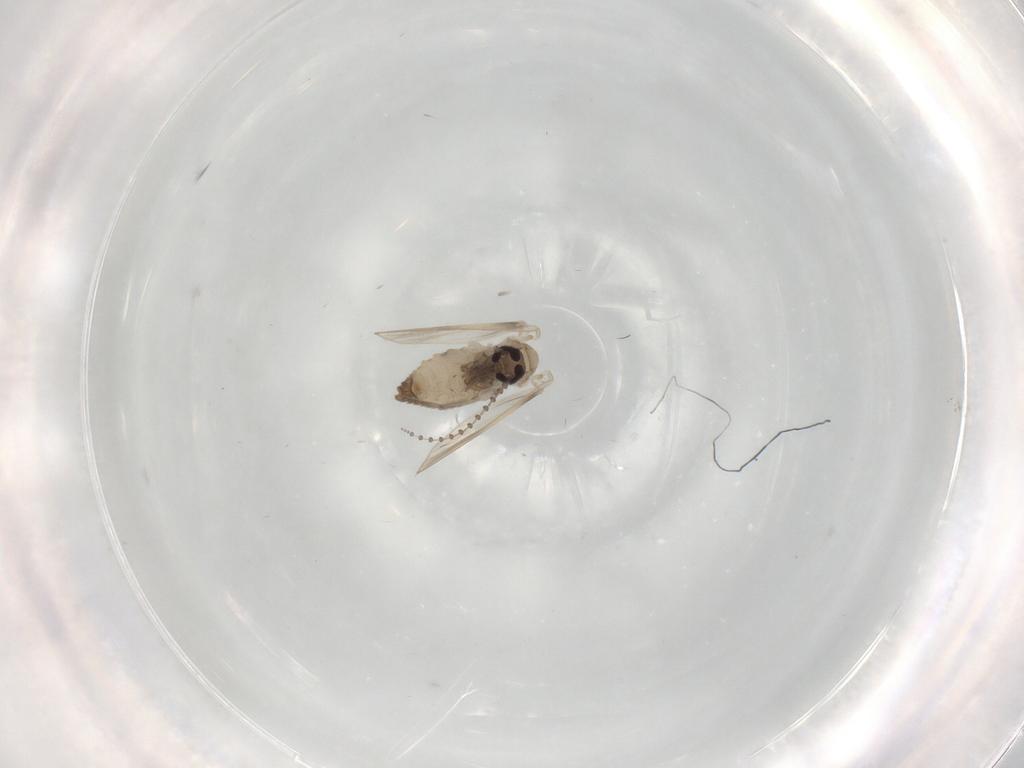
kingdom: Animalia
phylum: Arthropoda
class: Insecta
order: Diptera
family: Psychodidae
